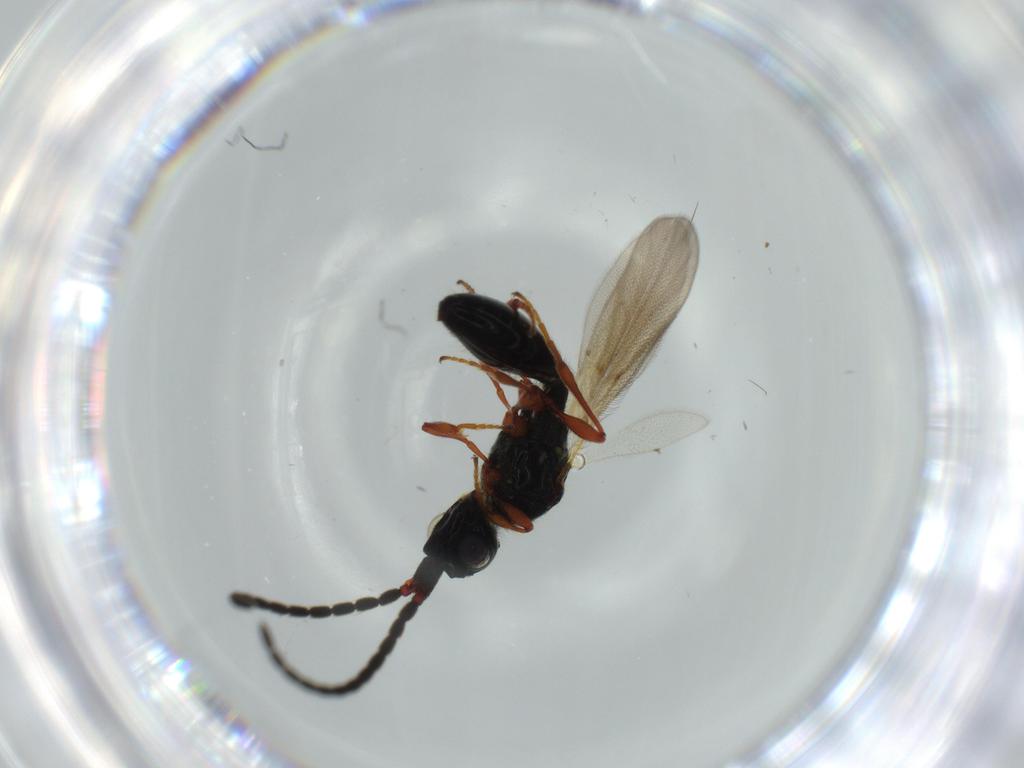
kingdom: Animalia
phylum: Arthropoda
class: Insecta
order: Hymenoptera
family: Diapriidae
